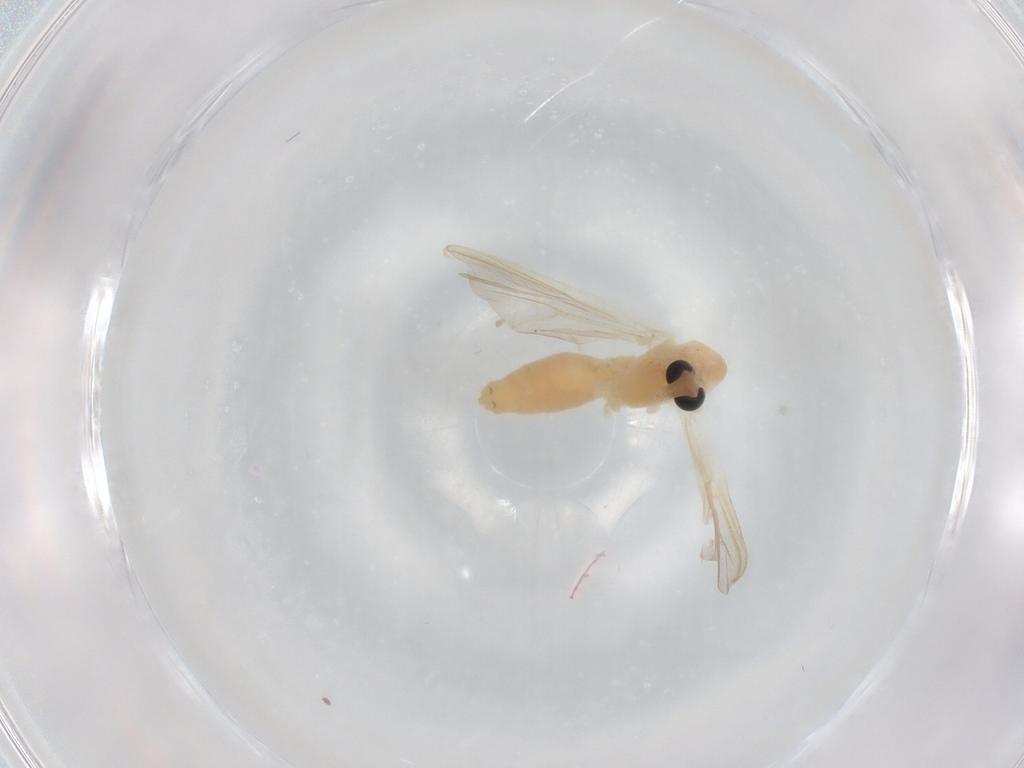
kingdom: Animalia
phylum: Arthropoda
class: Insecta
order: Diptera
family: Chironomidae
